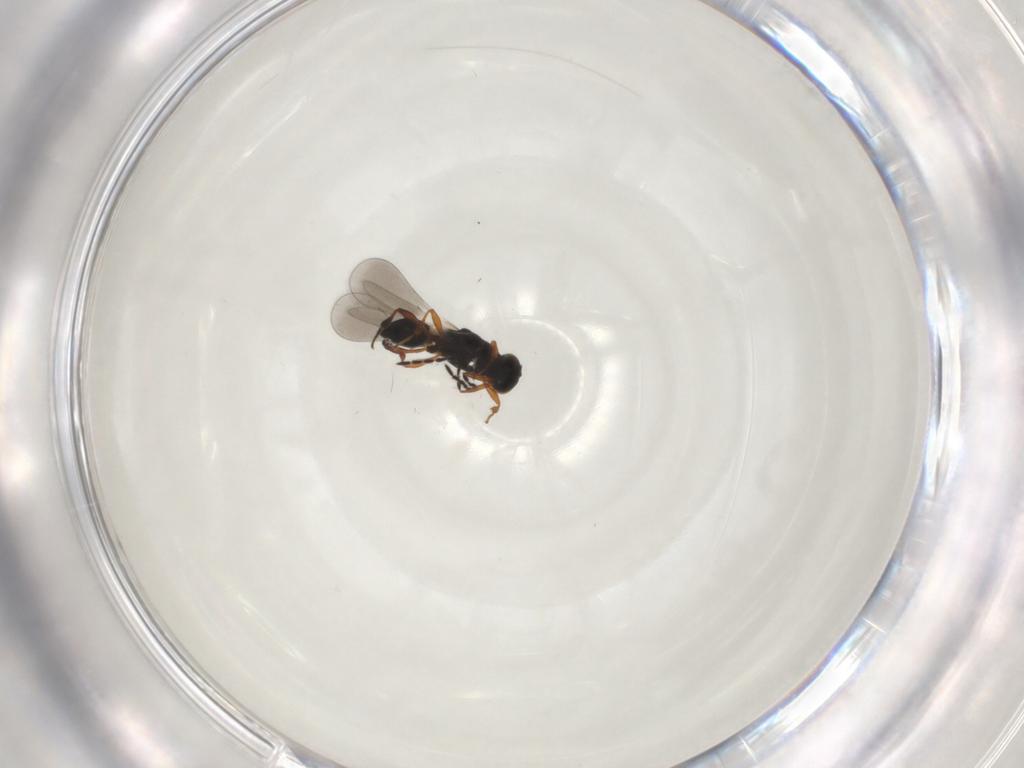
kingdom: Animalia
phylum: Arthropoda
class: Insecta
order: Hymenoptera
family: Platygastridae
